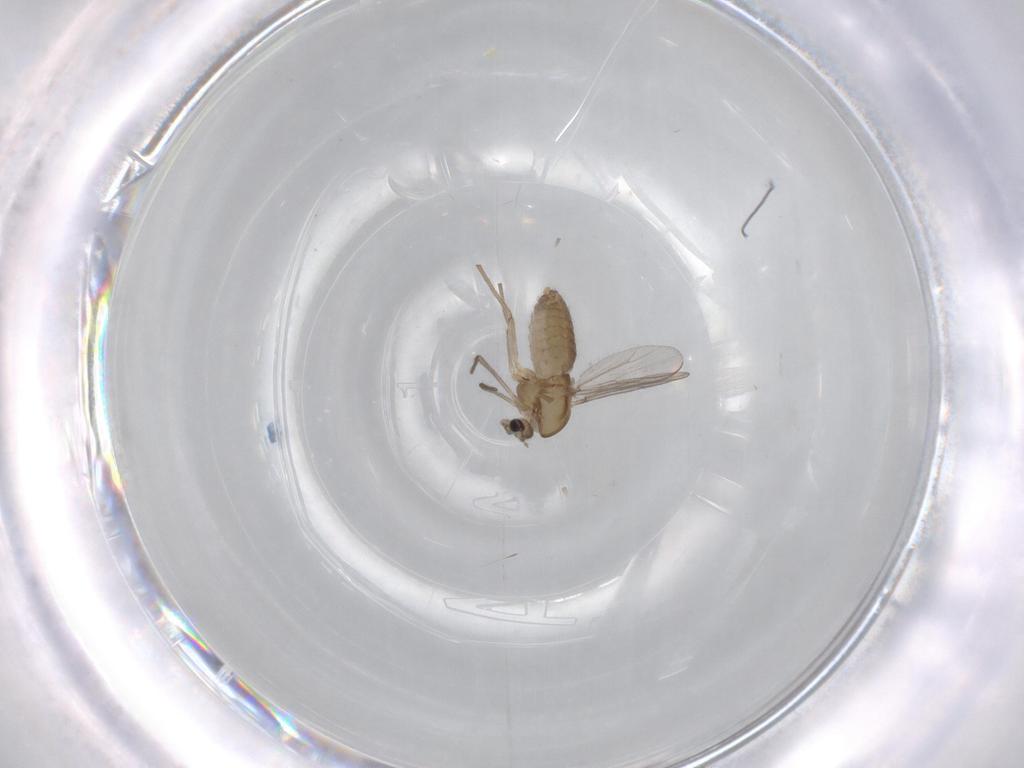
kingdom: Animalia
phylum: Arthropoda
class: Insecta
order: Diptera
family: Chironomidae
